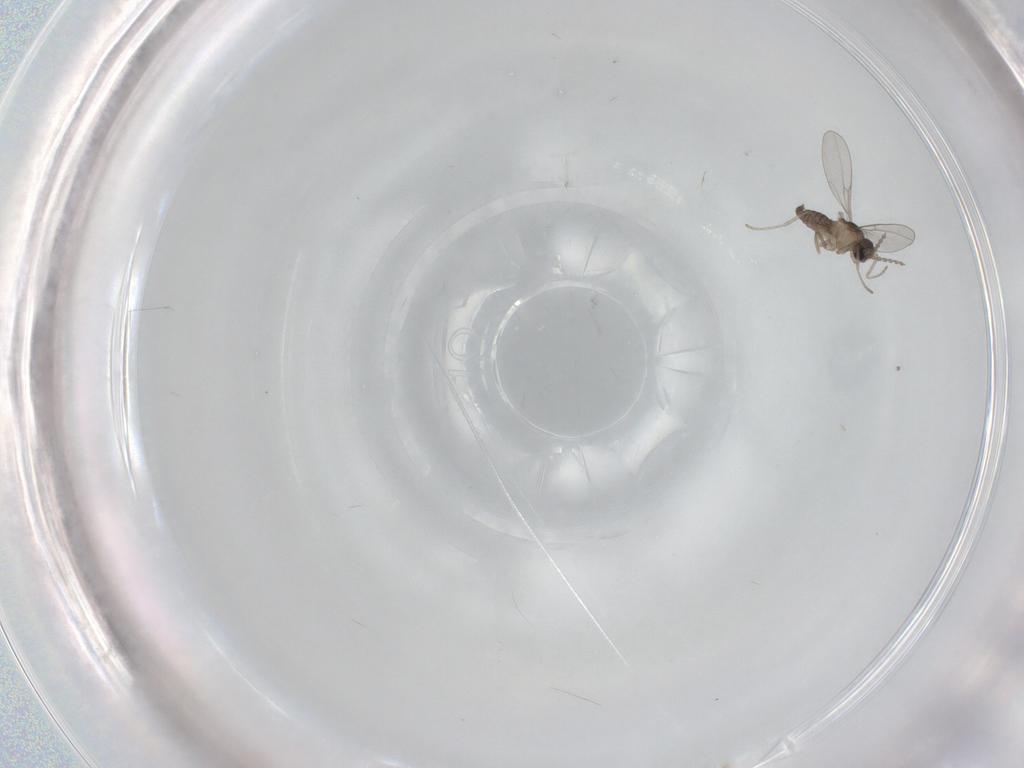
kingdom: Animalia
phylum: Arthropoda
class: Insecta
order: Diptera
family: Cecidomyiidae
